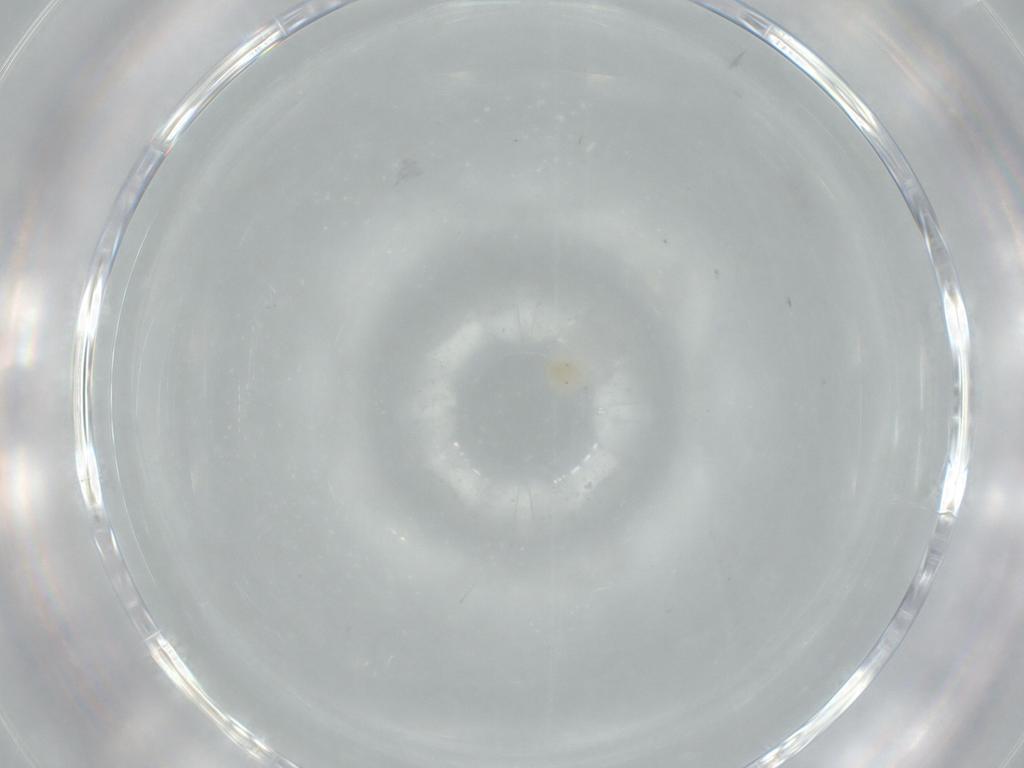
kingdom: Animalia
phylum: Arthropoda
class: Arachnida
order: Trombidiformes
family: Anystidae
